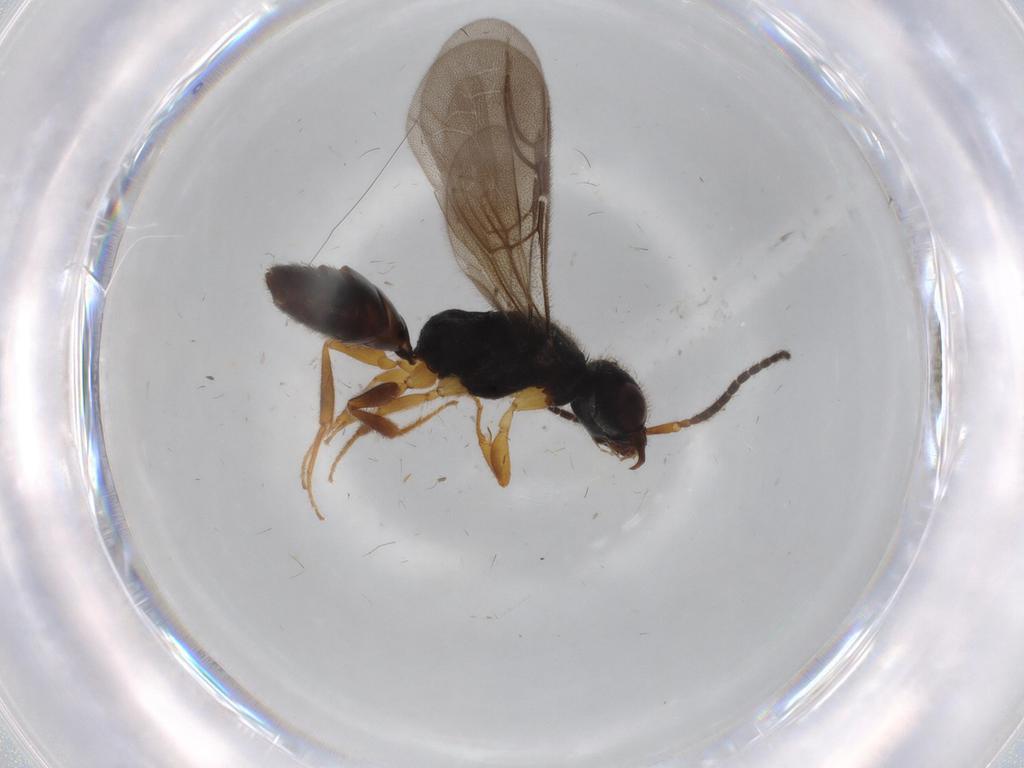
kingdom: Animalia
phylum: Arthropoda
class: Insecta
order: Hymenoptera
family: Bethylidae
